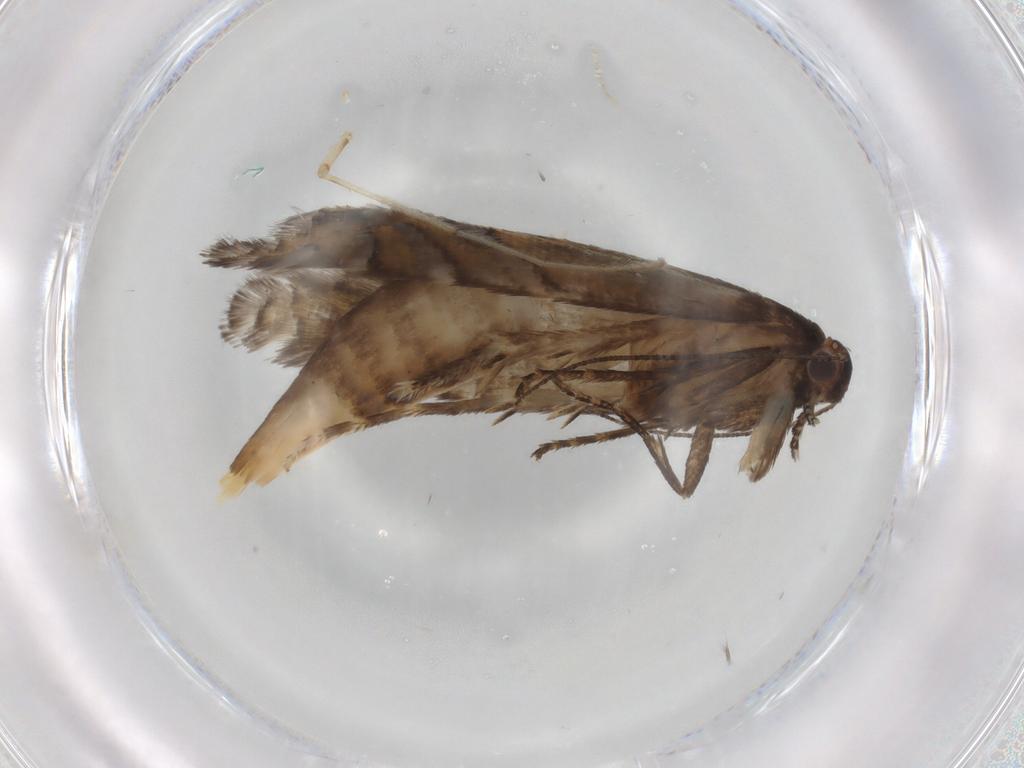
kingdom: Animalia
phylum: Arthropoda
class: Insecta
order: Lepidoptera
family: Crambidae
